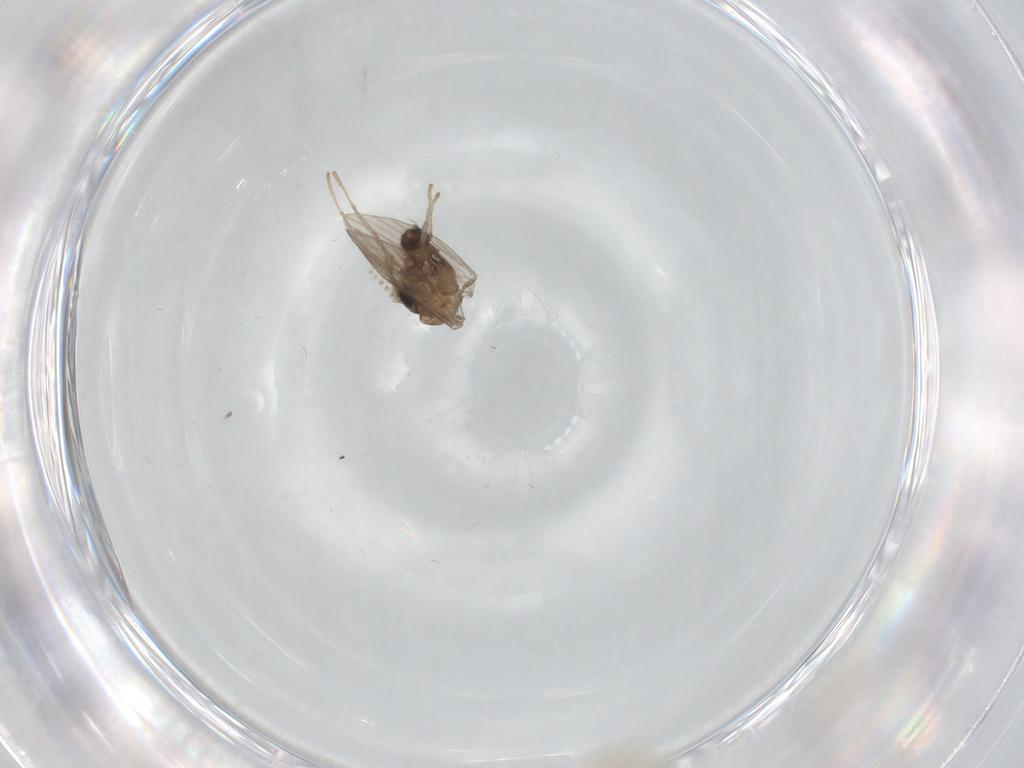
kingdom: Animalia
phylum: Arthropoda
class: Insecta
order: Diptera
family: Psychodidae
